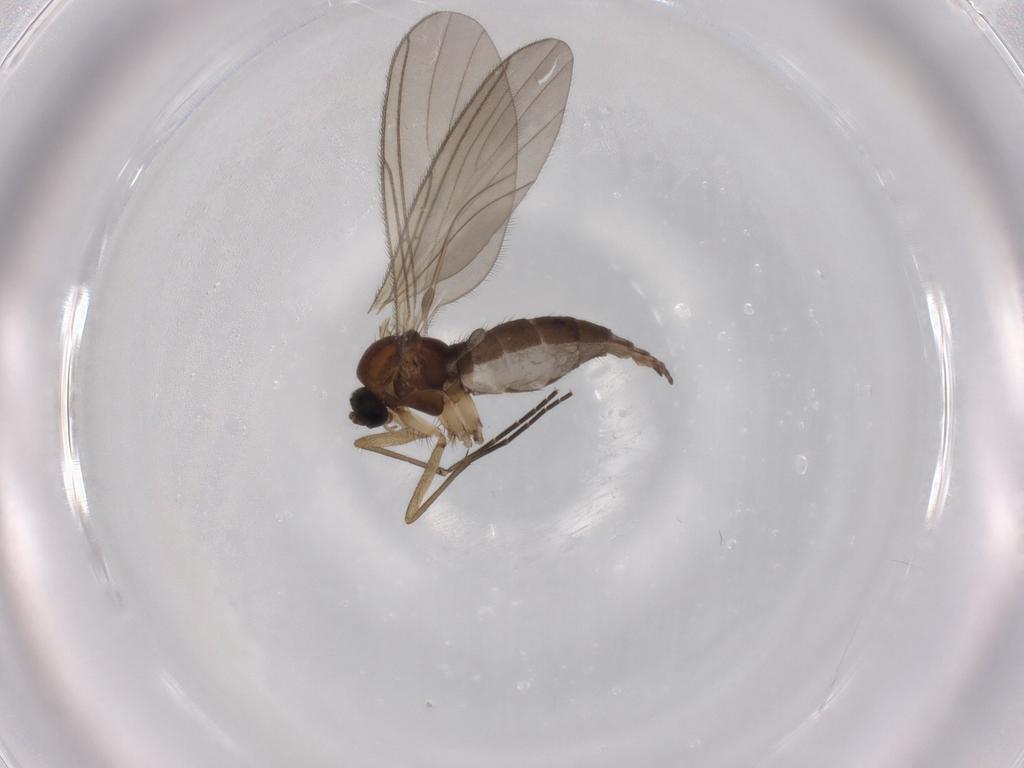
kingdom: Animalia
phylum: Arthropoda
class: Insecta
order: Diptera
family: Sciaridae
